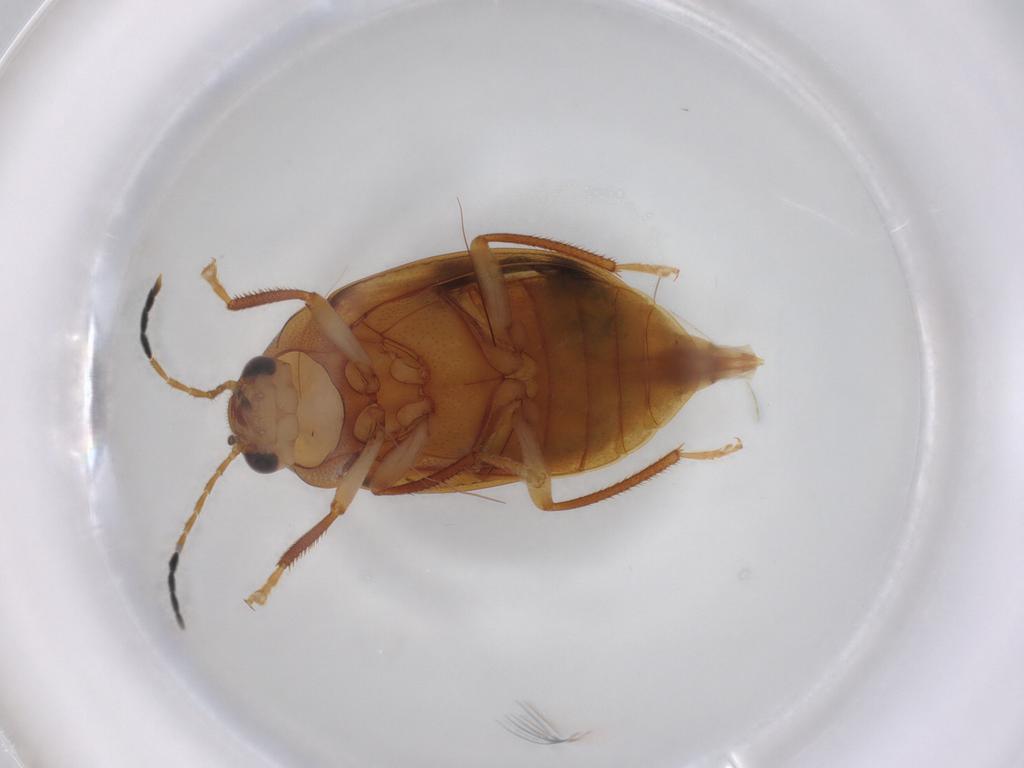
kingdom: Animalia
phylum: Arthropoda
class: Insecta
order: Coleoptera
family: Ptilodactylidae
